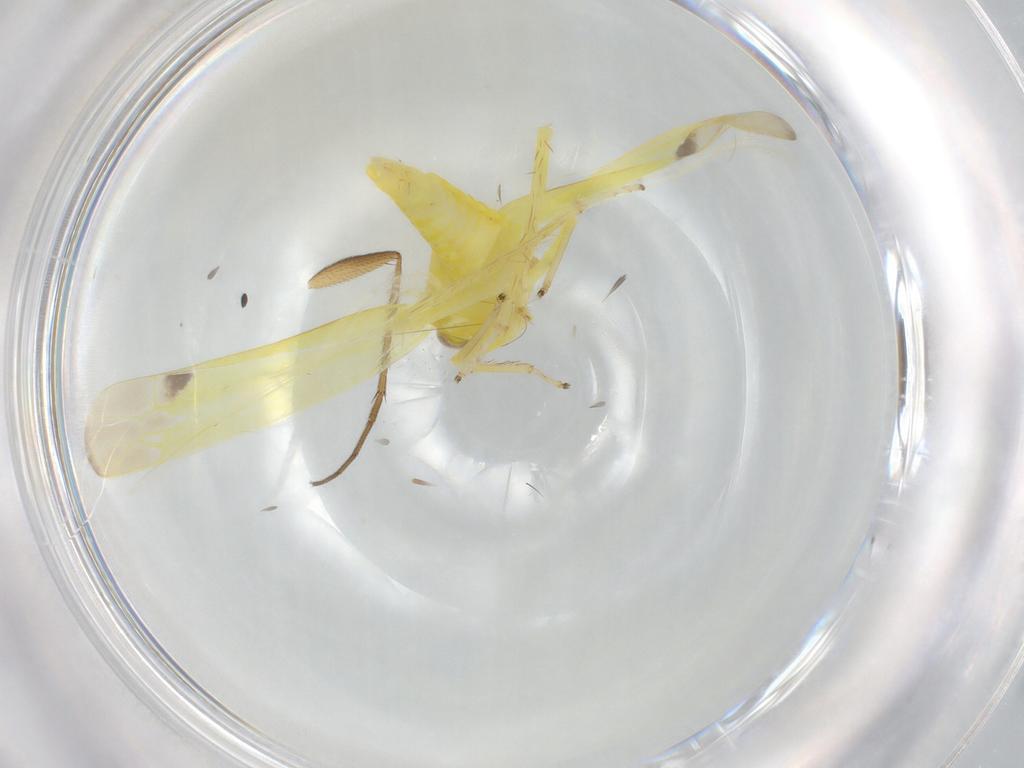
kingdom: Animalia
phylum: Arthropoda
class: Insecta
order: Hemiptera
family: Cicadellidae
